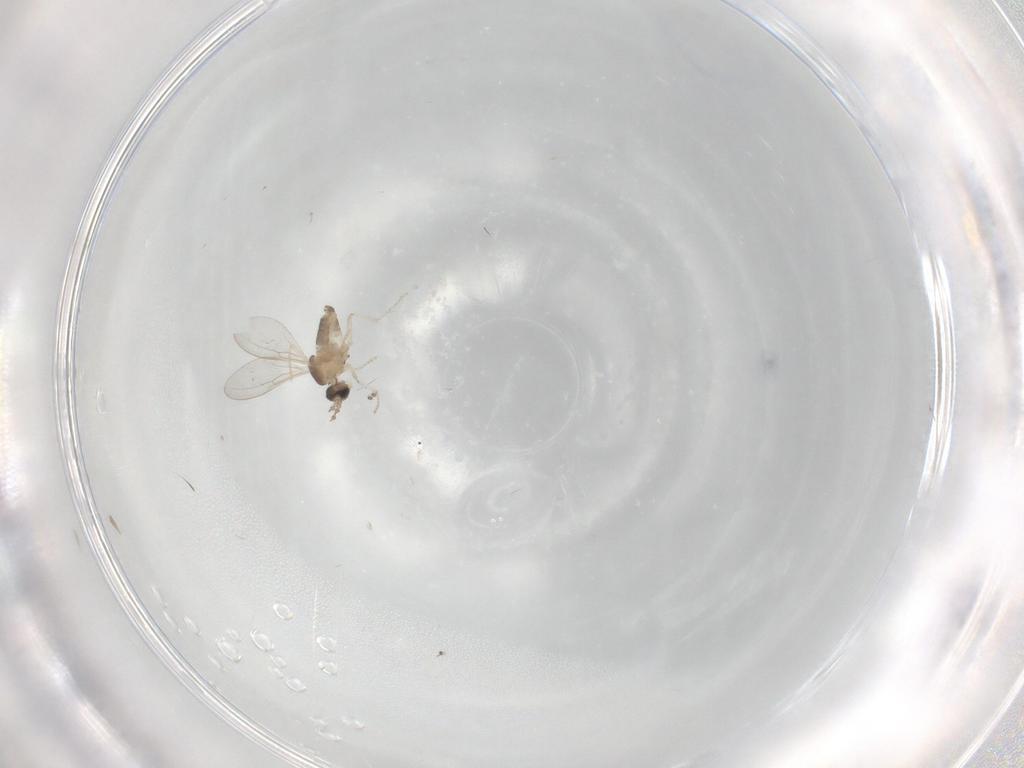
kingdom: Animalia
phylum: Arthropoda
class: Insecta
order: Diptera
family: Cecidomyiidae
